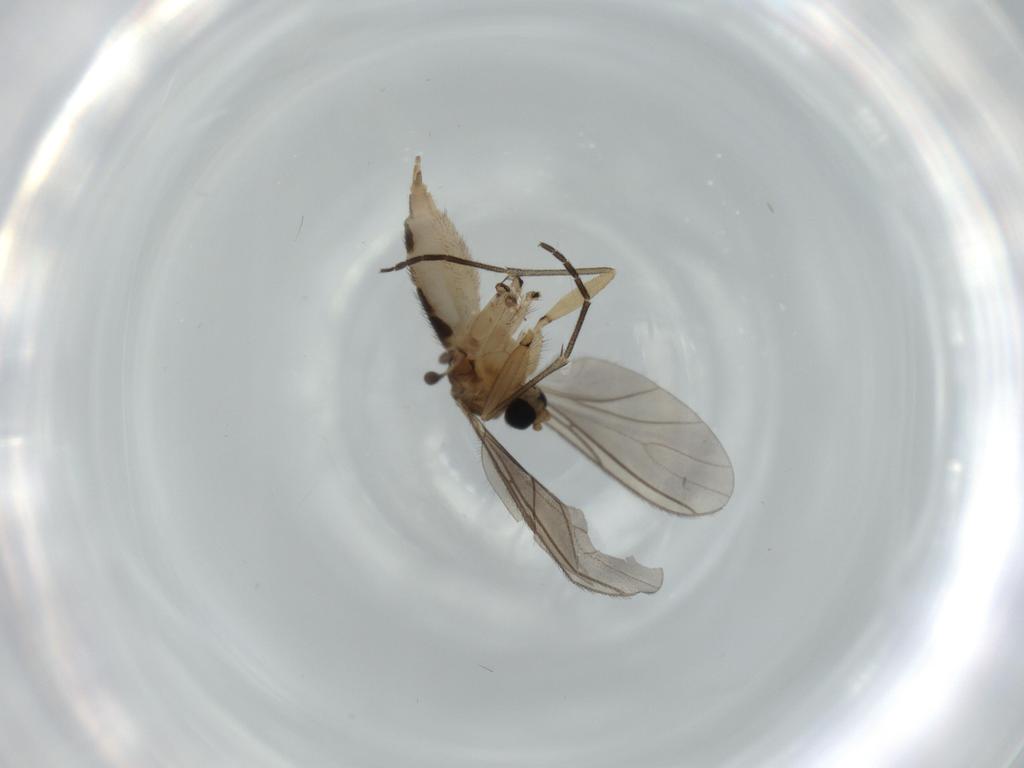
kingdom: Animalia
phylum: Arthropoda
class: Insecta
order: Diptera
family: Sciaridae
